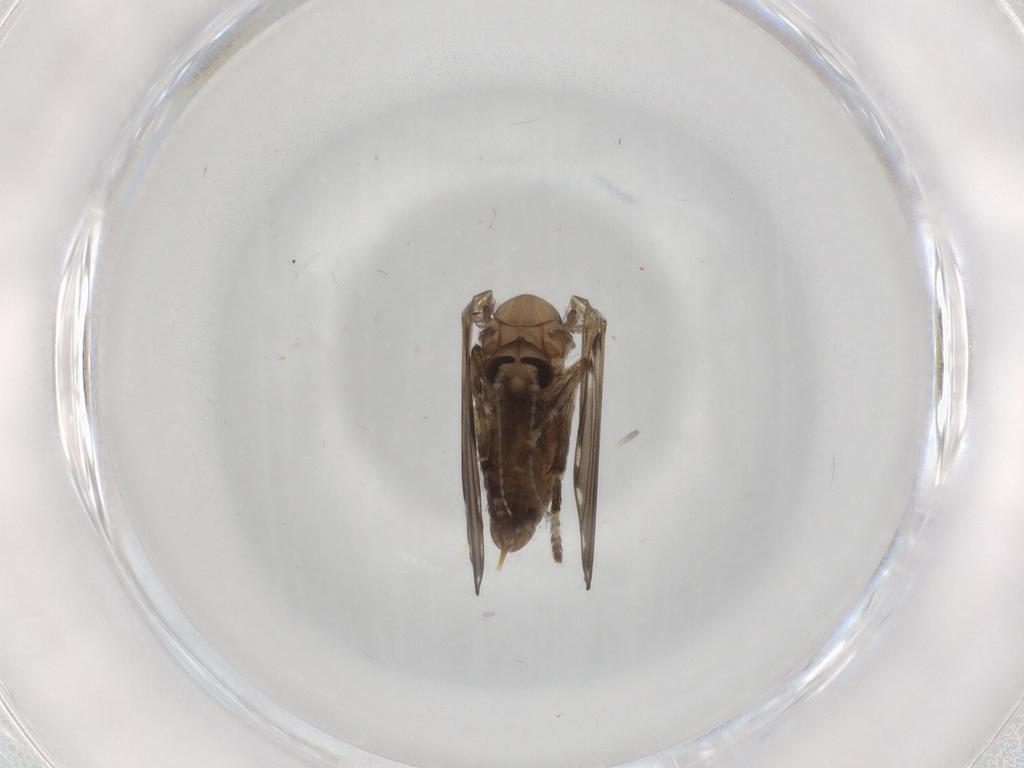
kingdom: Animalia
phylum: Arthropoda
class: Insecta
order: Diptera
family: Psychodidae
